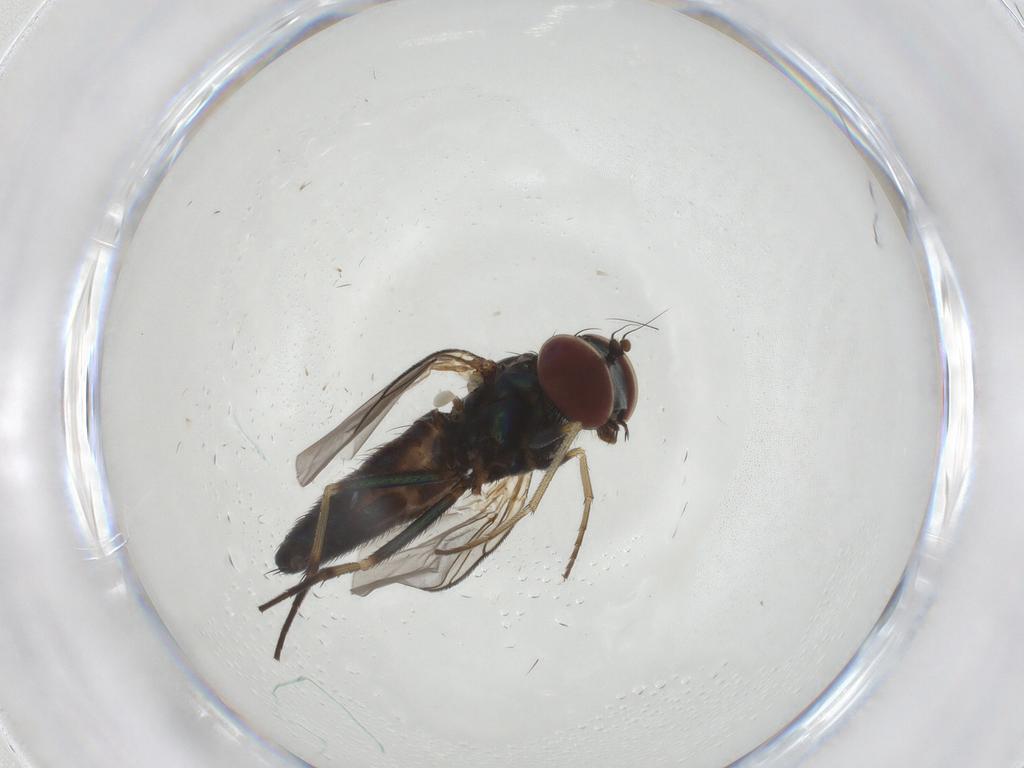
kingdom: Animalia
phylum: Arthropoda
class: Insecta
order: Diptera
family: Dolichopodidae
